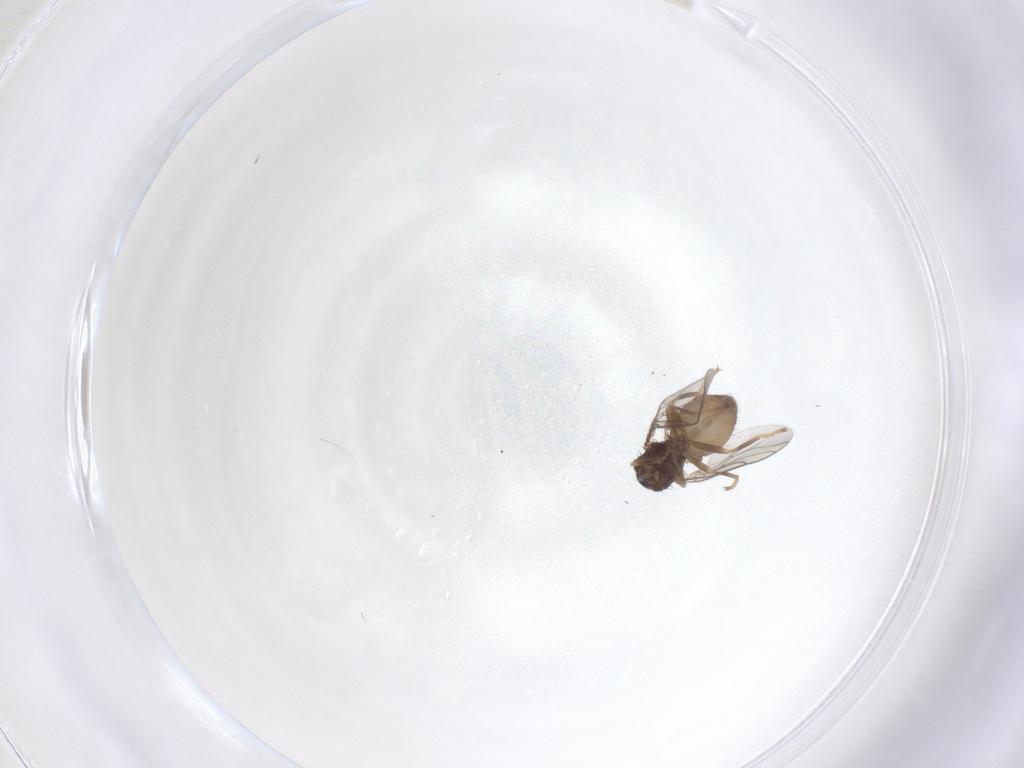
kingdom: Animalia
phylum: Arthropoda
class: Insecta
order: Diptera
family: Chloropidae
